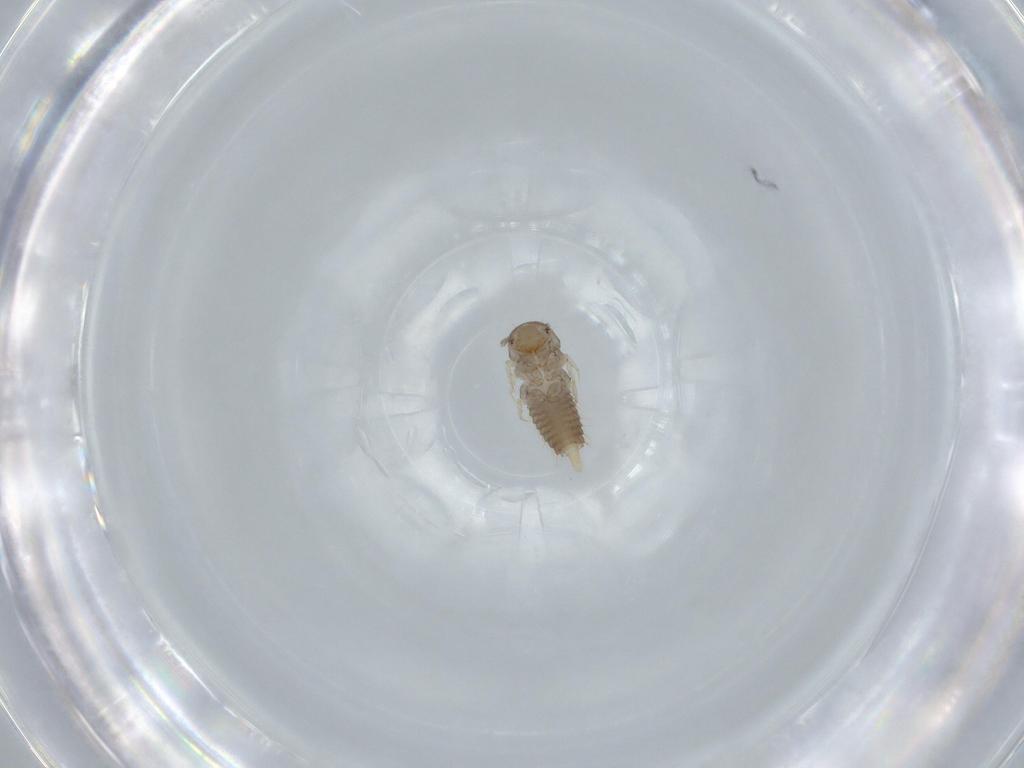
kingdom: Animalia
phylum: Arthropoda
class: Insecta
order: Coleoptera
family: Staphylinidae
